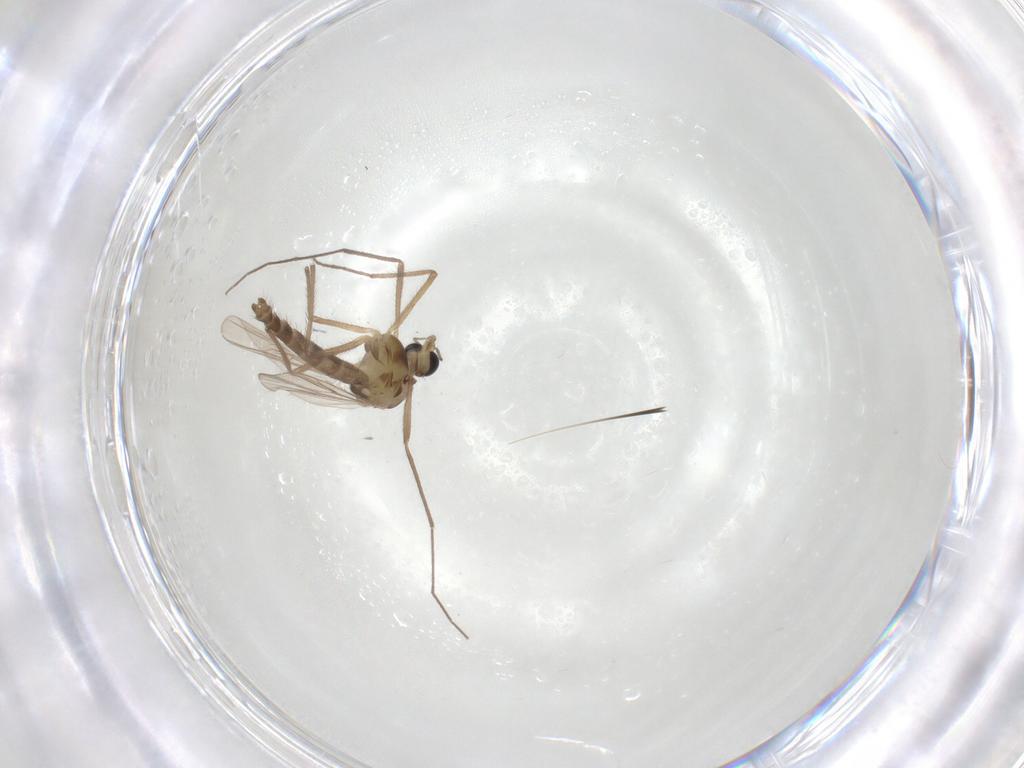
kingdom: Animalia
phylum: Arthropoda
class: Insecta
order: Diptera
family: Chironomidae
